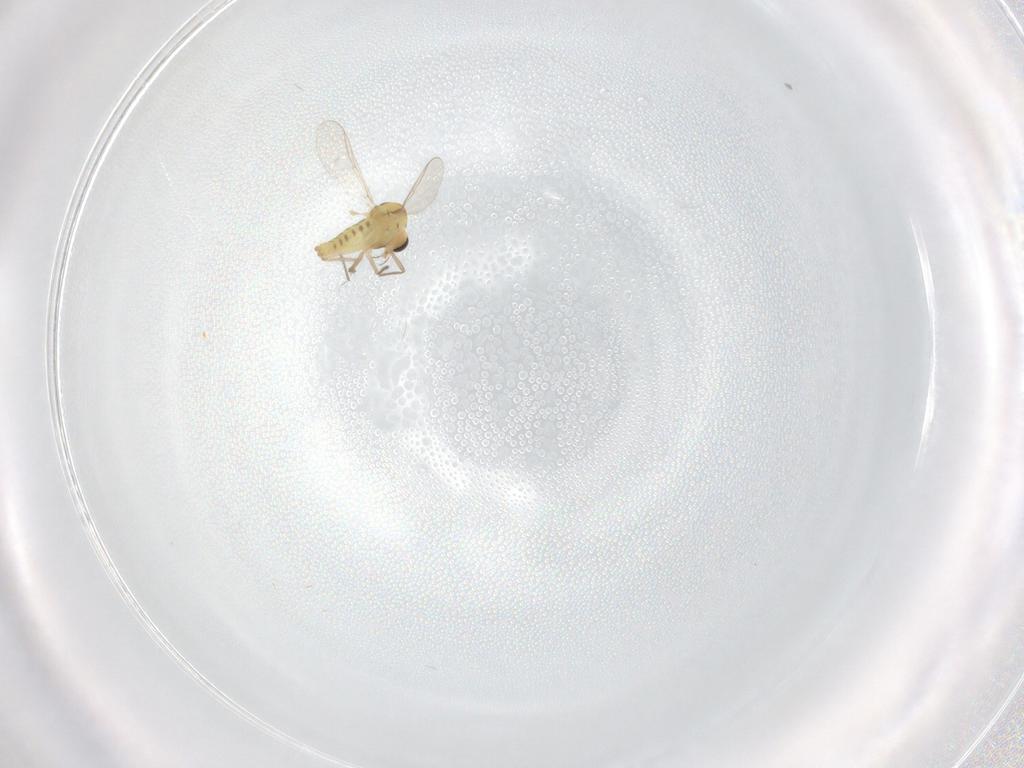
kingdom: Animalia
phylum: Arthropoda
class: Insecta
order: Diptera
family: Chironomidae
